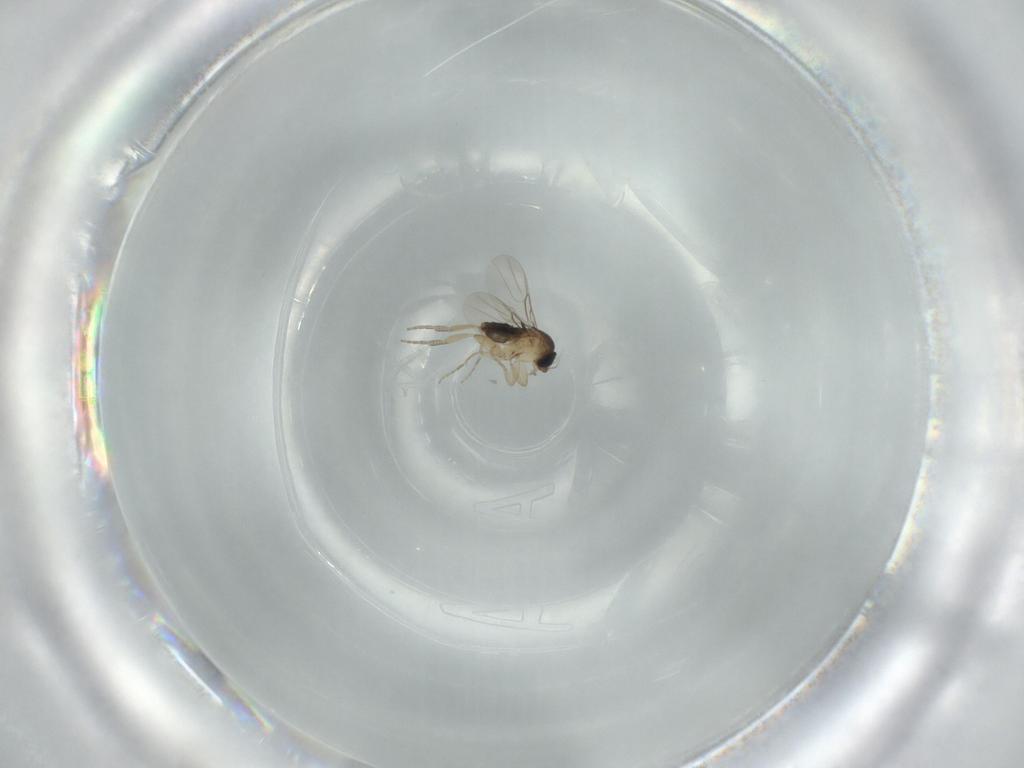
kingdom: Animalia
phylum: Arthropoda
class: Insecta
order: Diptera
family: Phoridae
